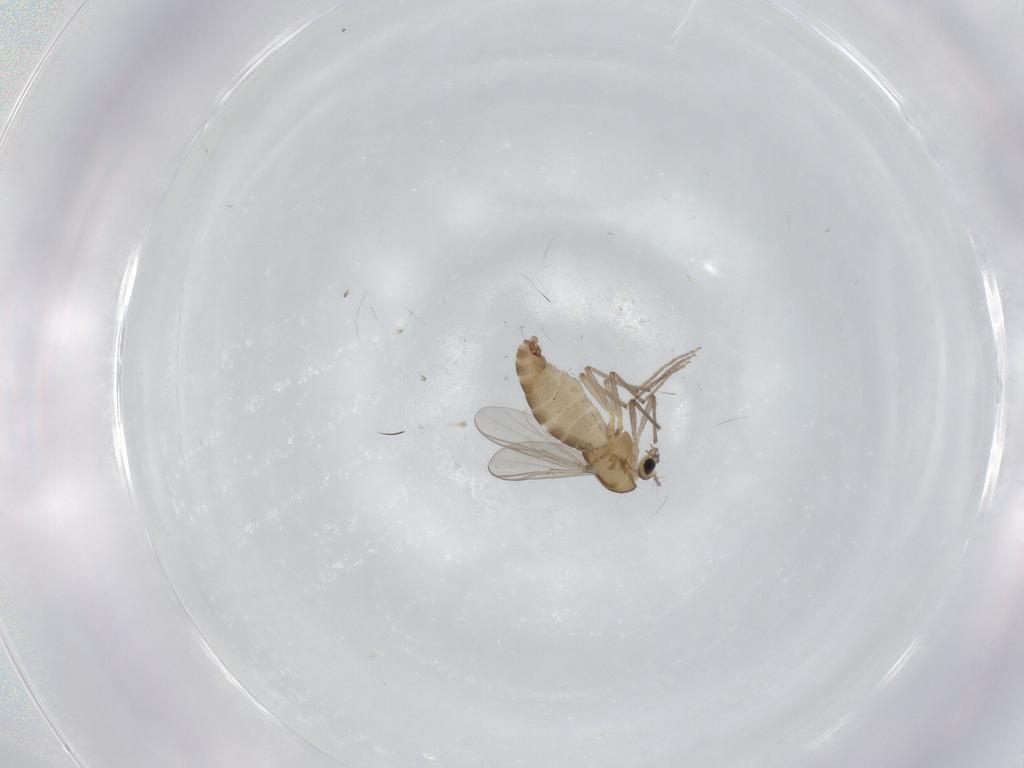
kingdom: Animalia
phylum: Arthropoda
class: Insecta
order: Diptera
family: Chironomidae
